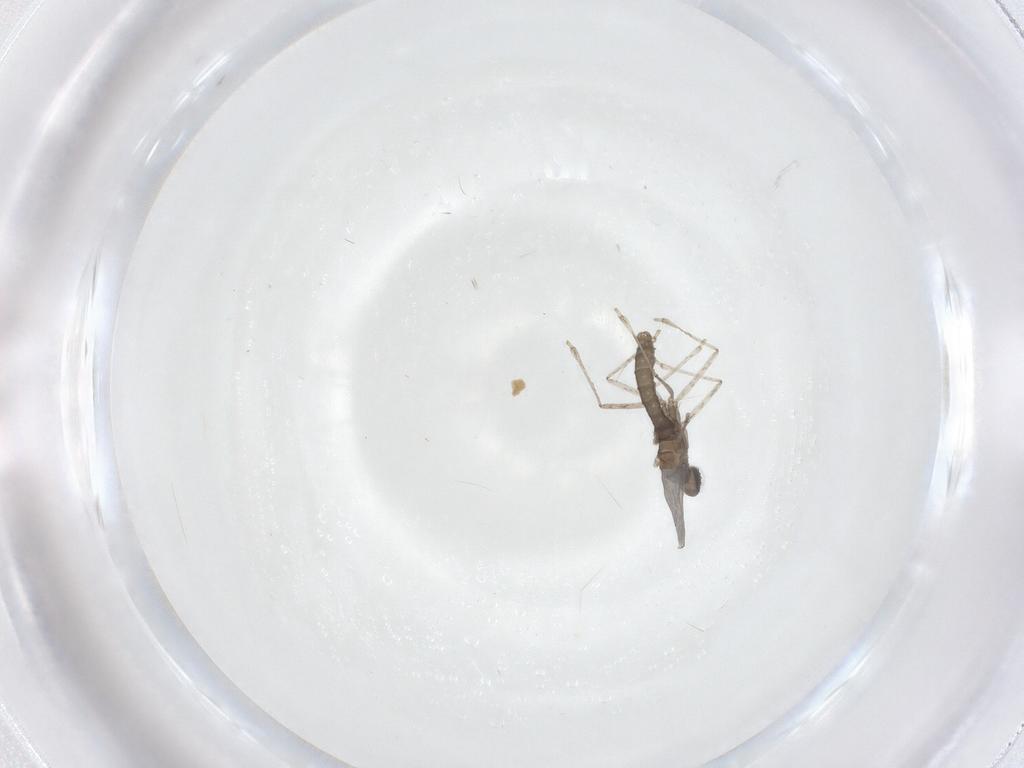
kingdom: Animalia
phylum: Arthropoda
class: Insecta
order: Diptera
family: Cecidomyiidae
